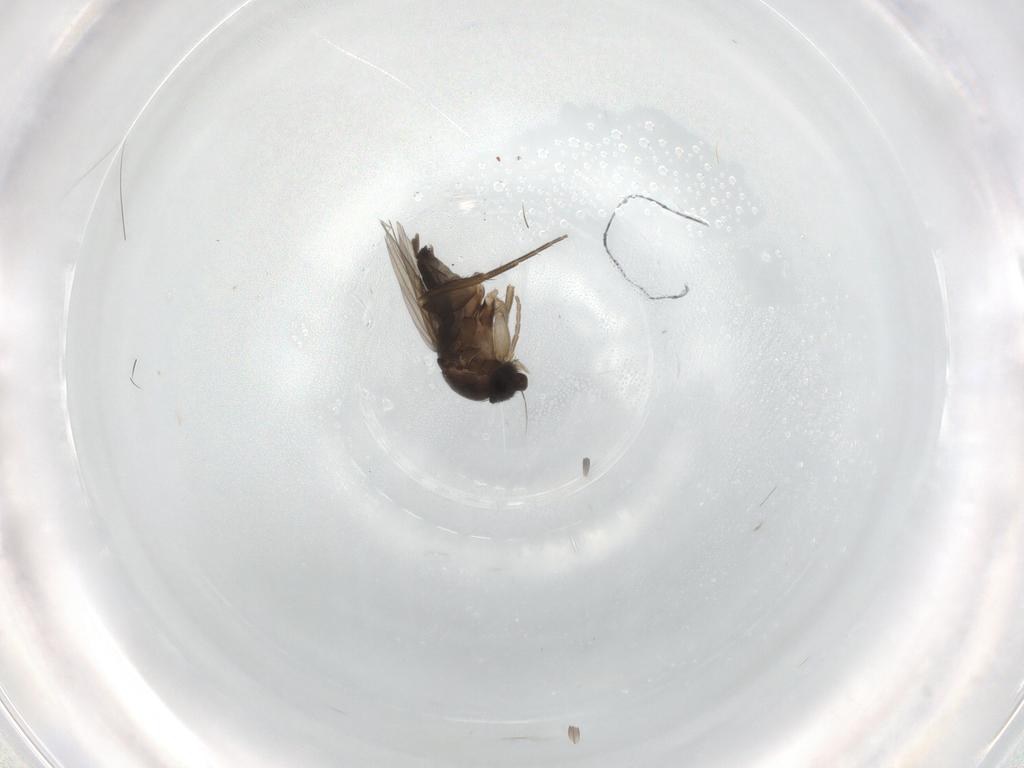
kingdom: Animalia
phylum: Arthropoda
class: Insecta
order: Diptera
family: Phoridae
